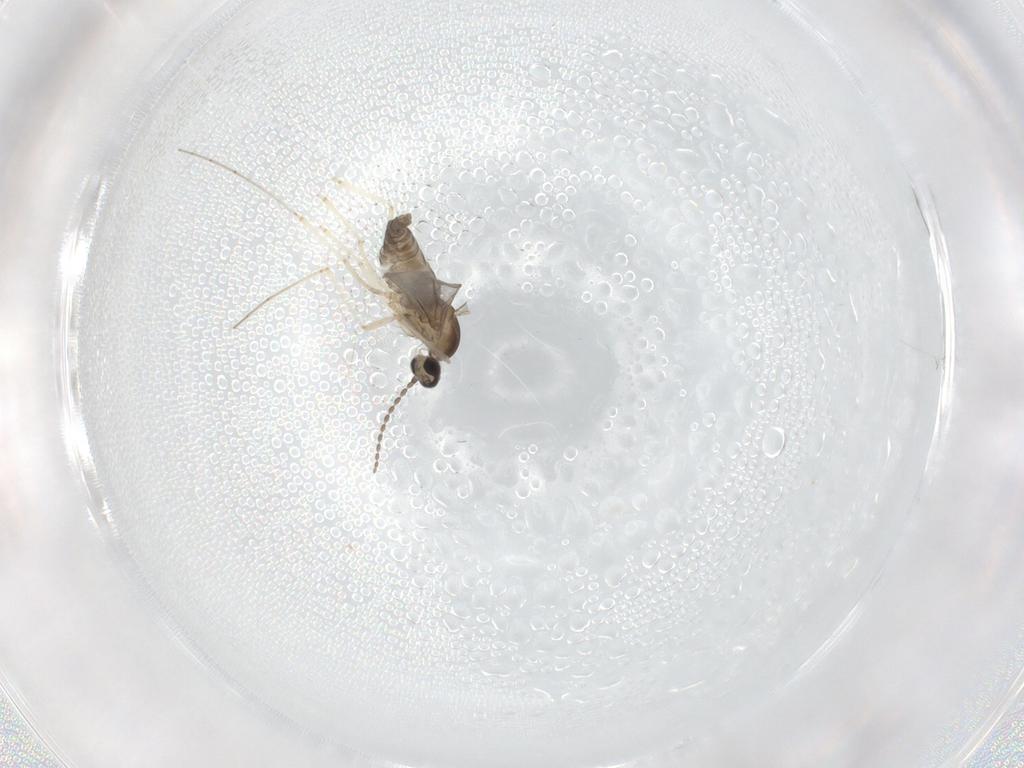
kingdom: Animalia
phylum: Arthropoda
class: Insecta
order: Diptera
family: Cecidomyiidae
